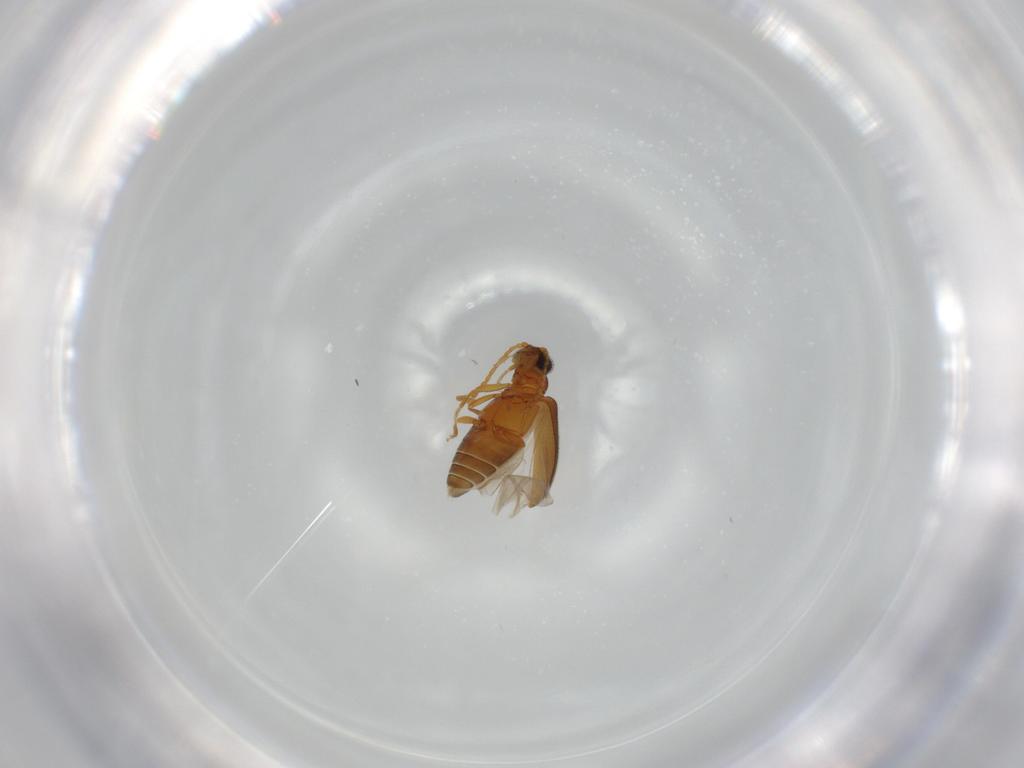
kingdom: Animalia
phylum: Arthropoda
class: Insecta
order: Coleoptera
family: Aderidae
